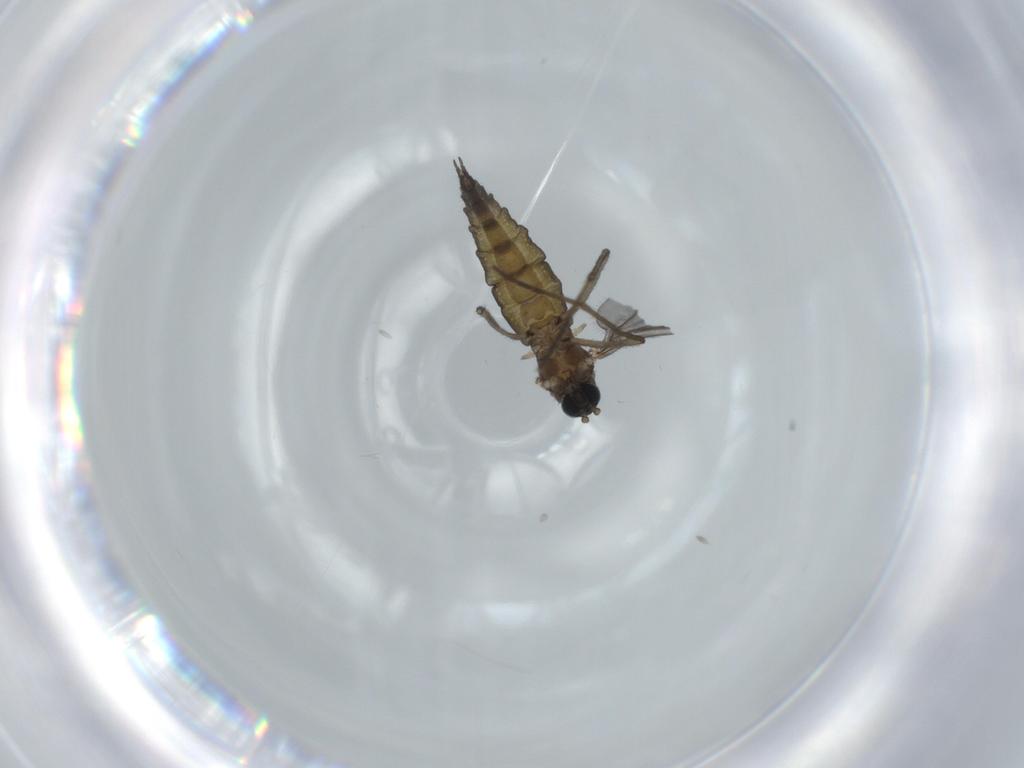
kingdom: Animalia
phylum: Arthropoda
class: Insecta
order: Diptera
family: Sciaridae
